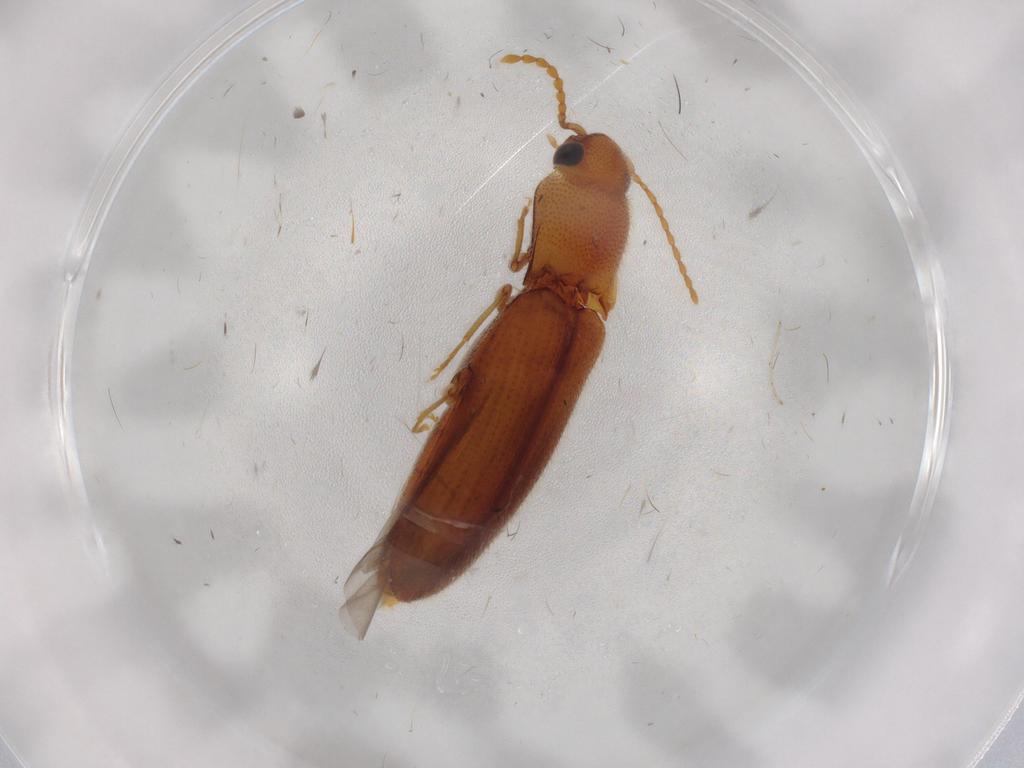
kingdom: Animalia
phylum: Arthropoda
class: Insecta
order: Coleoptera
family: Elateridae
